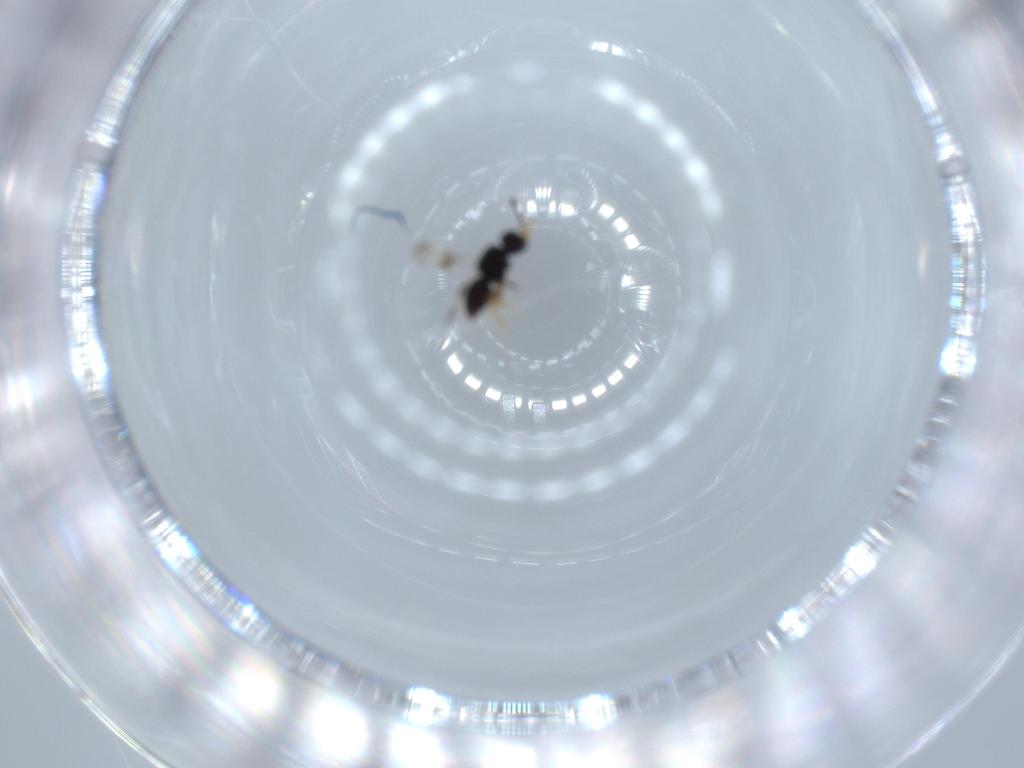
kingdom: Animalia
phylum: Arthropoda
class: Insecta
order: Hymenoptera
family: Ceraphronidae
